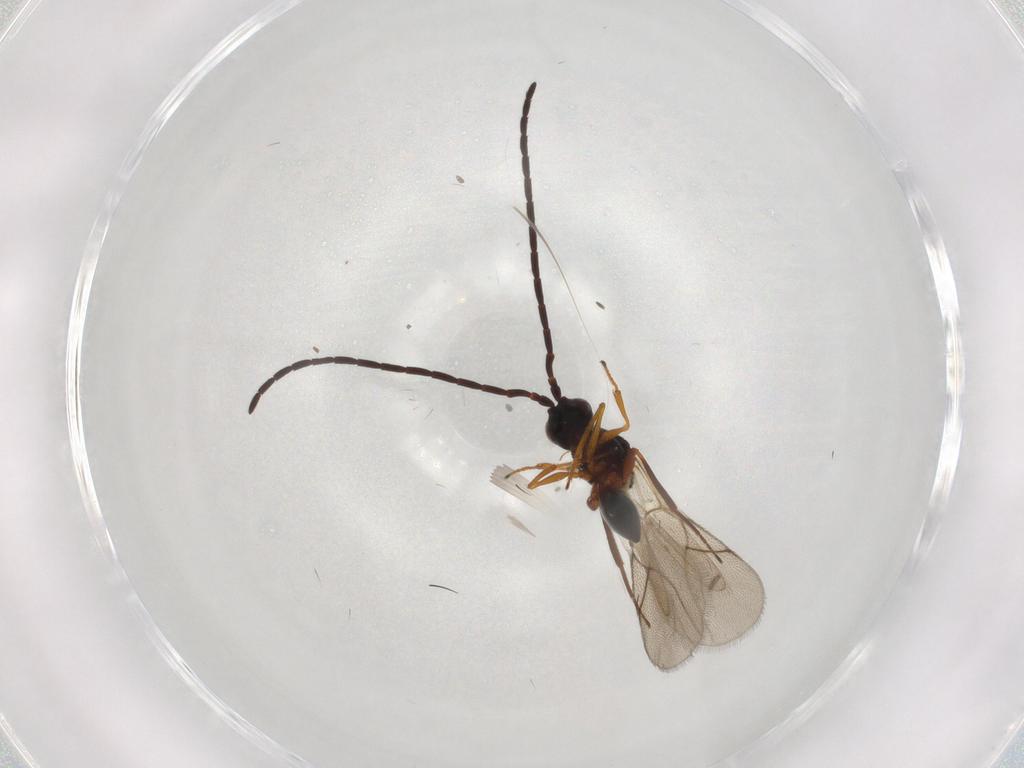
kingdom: Animalia
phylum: Arthropoda
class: Insecta
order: Hymenoptera
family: Figitidae
